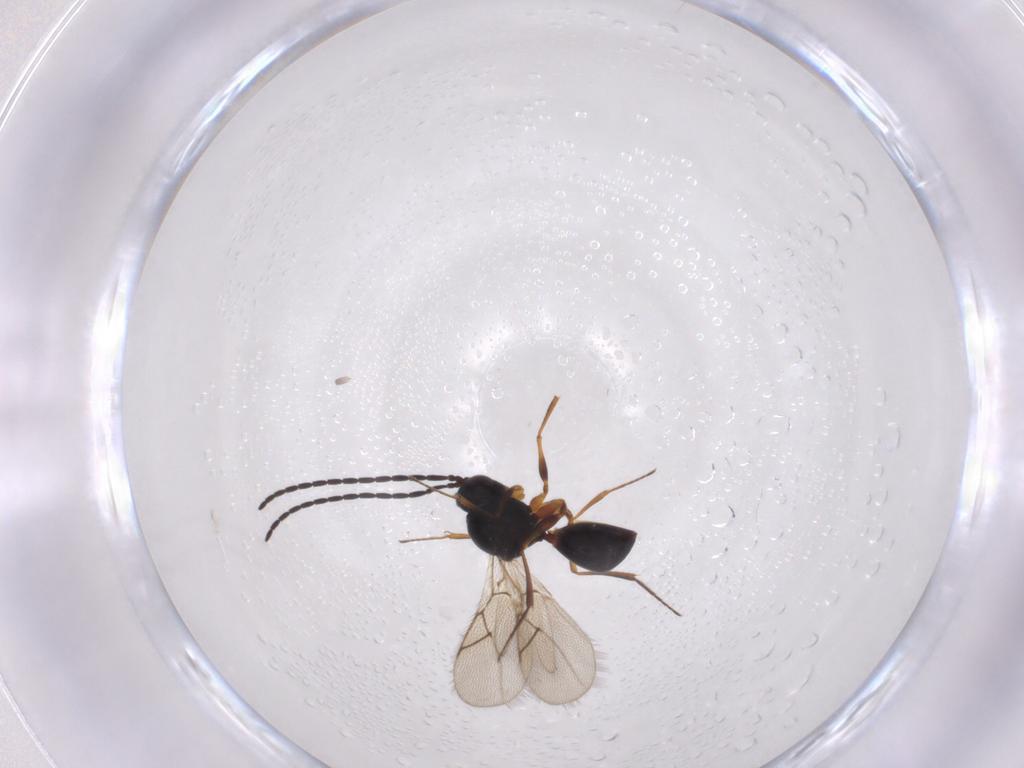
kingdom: Animalia
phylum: Arthropoda
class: Insecta
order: Hymenoptera
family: Figitidae
